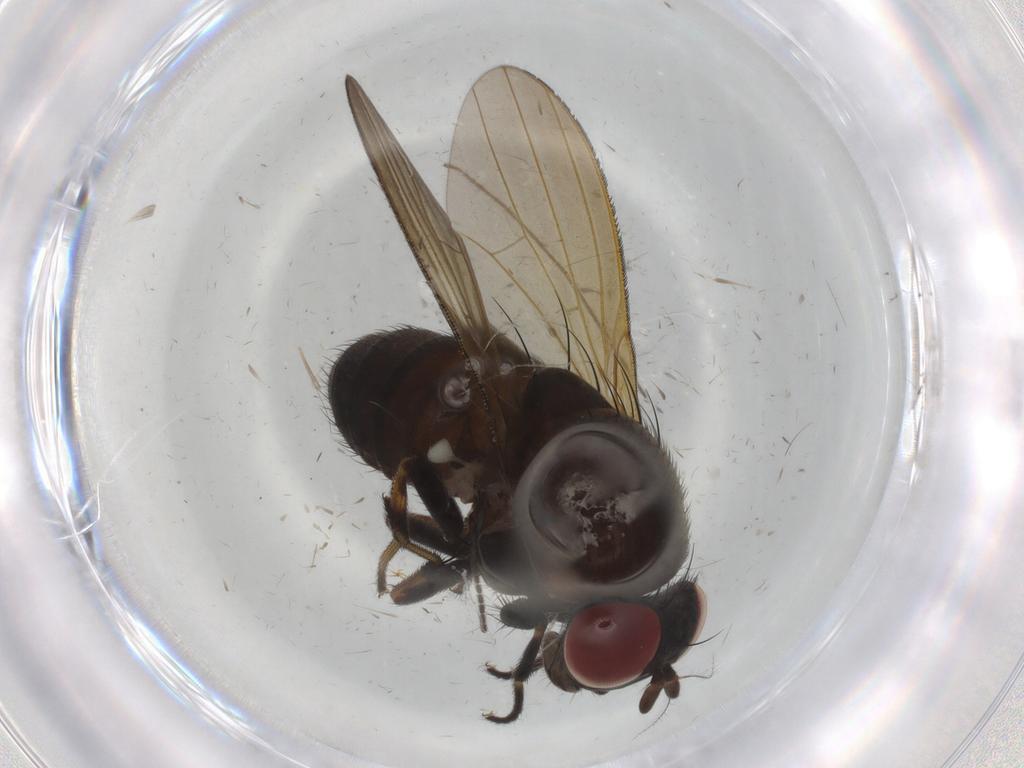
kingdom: Animalia
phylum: Arthropoda
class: Insecta
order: Diptera
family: Lauxaniidae
